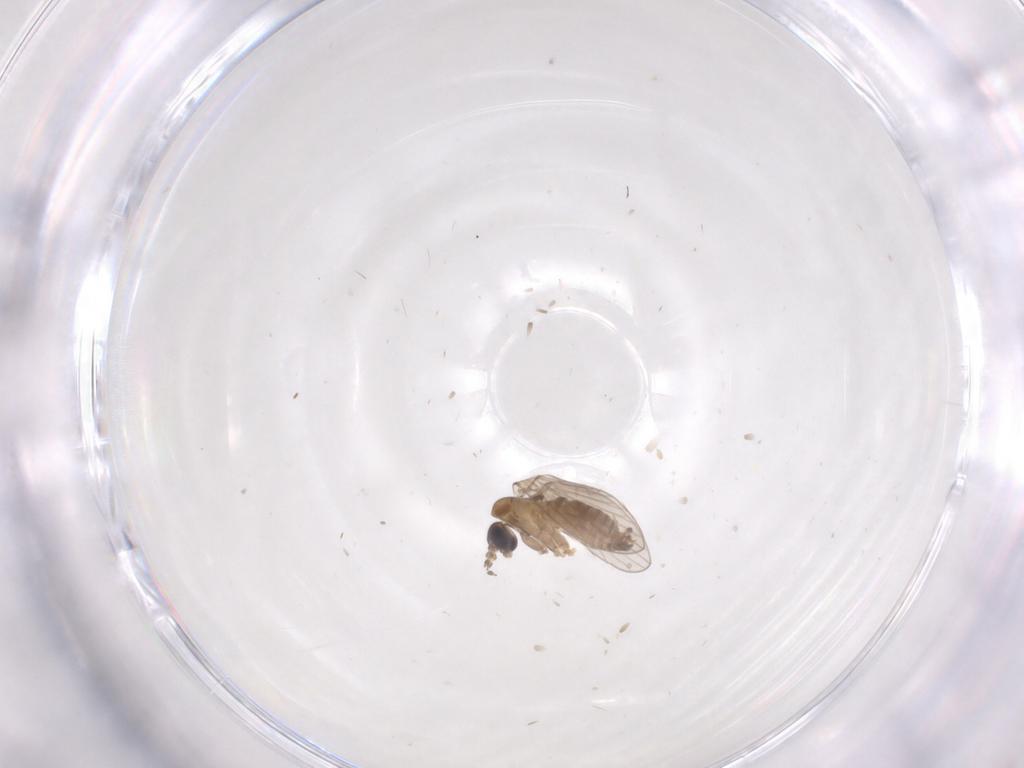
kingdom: Animalia
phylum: Arthropoda
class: Insecta
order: Diptera
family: Psychodidae
